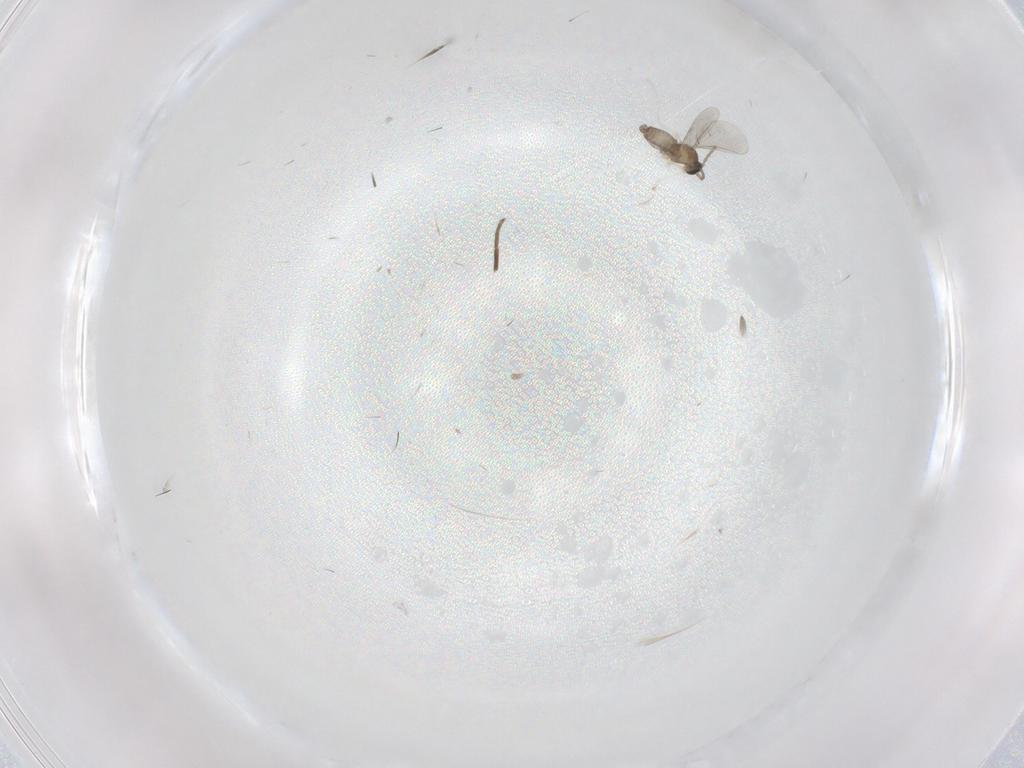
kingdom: Animalia
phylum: Arthropoda
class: Insecta
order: Diptera
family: Cecidomyiidae
